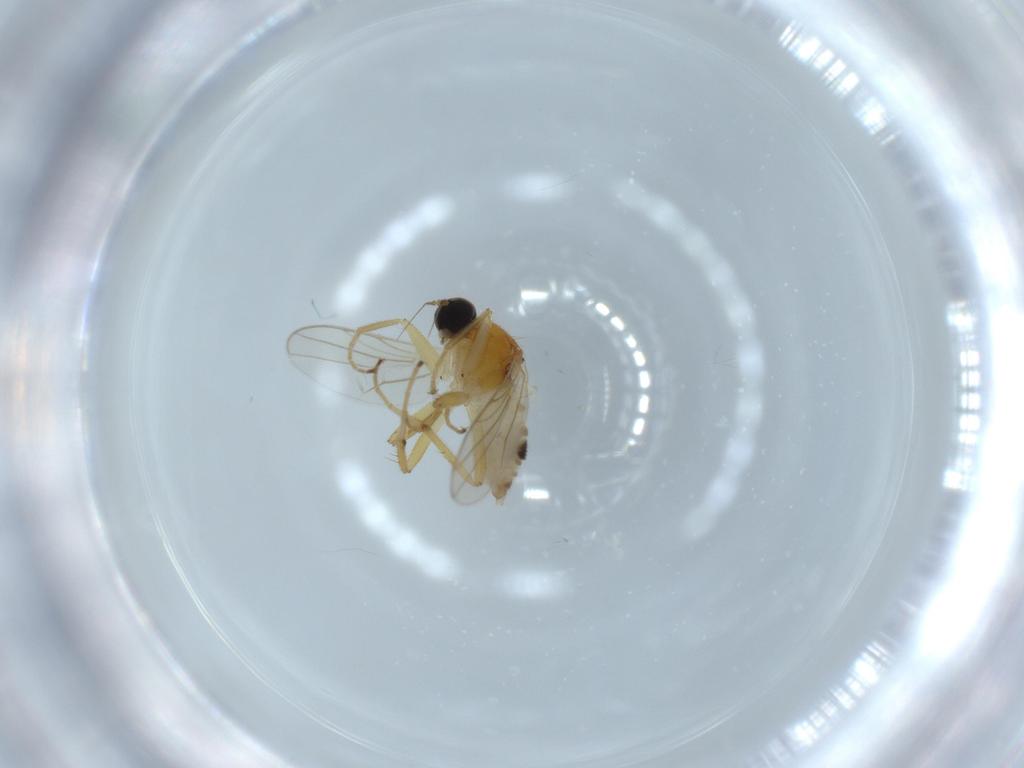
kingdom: Animalia
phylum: Arthropoda
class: Insecta
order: Diptera
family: Hybotidae
